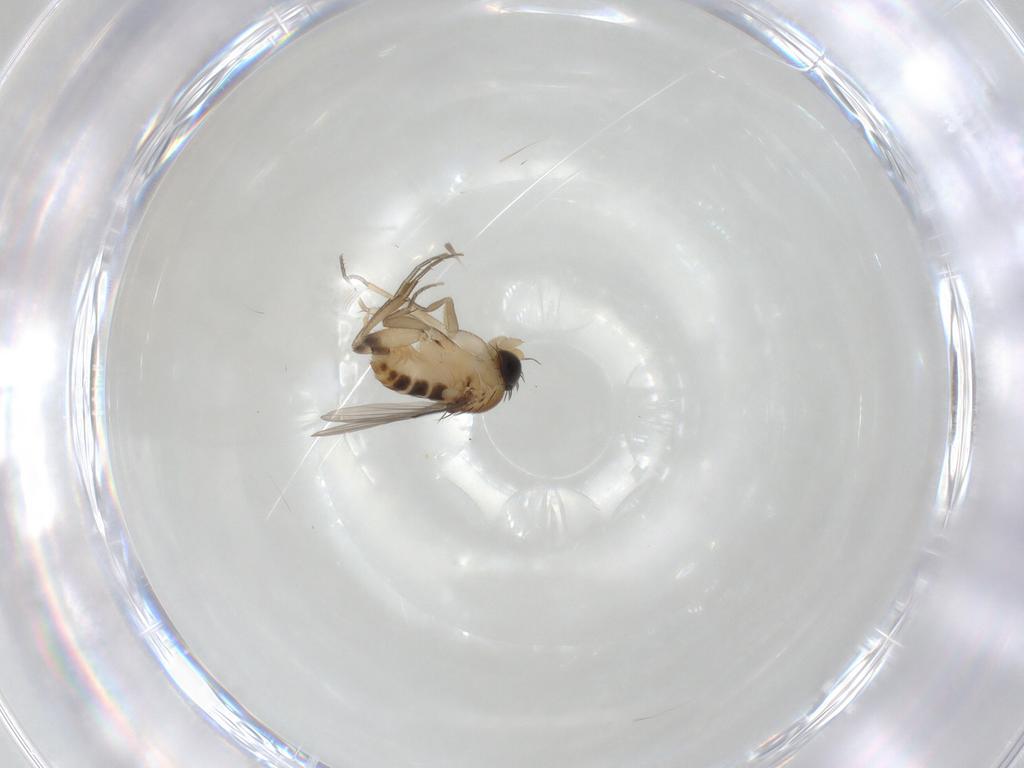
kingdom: Animalia
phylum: Arthropoda
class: Insecta
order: Diptera
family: Phoridae
